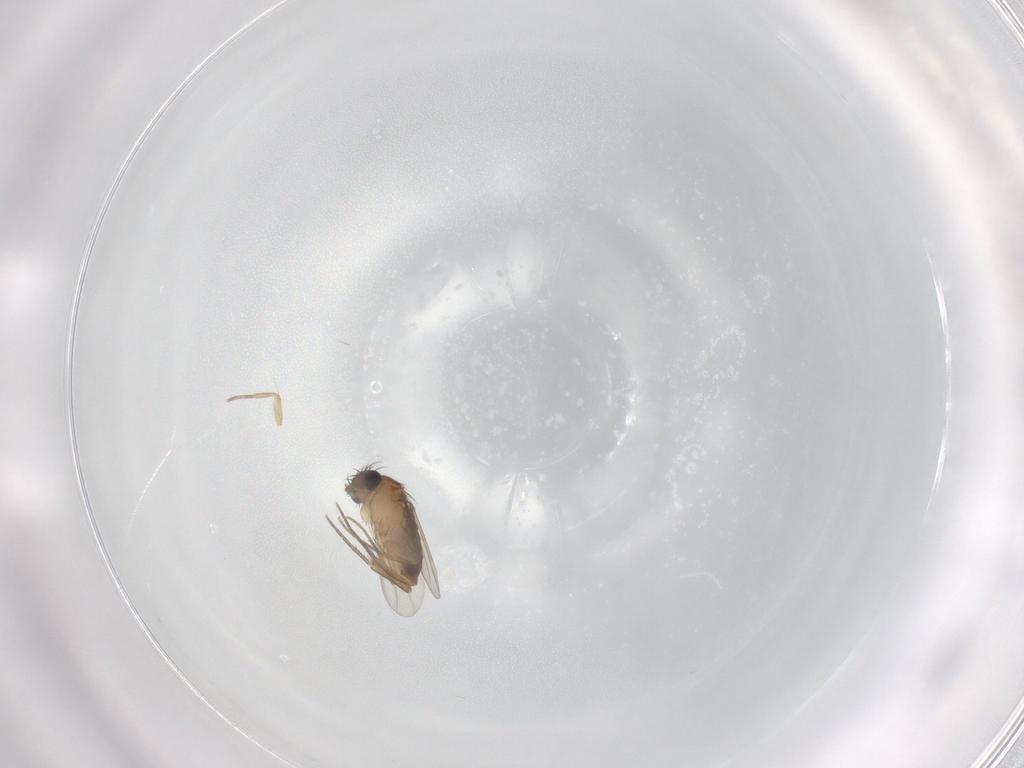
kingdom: Animalia
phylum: Arthropoda
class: Insecta
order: Diptera
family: Phoridae
